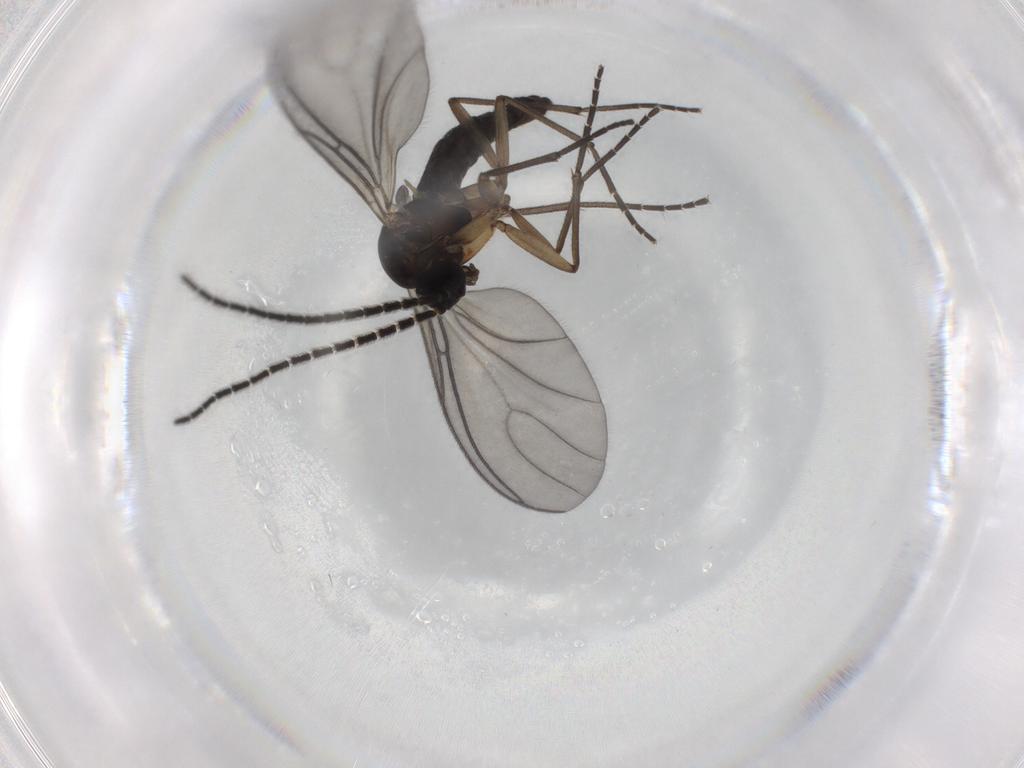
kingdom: Animalia
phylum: Arthropoda
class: Insecta
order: Diptera
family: Sciaridae
